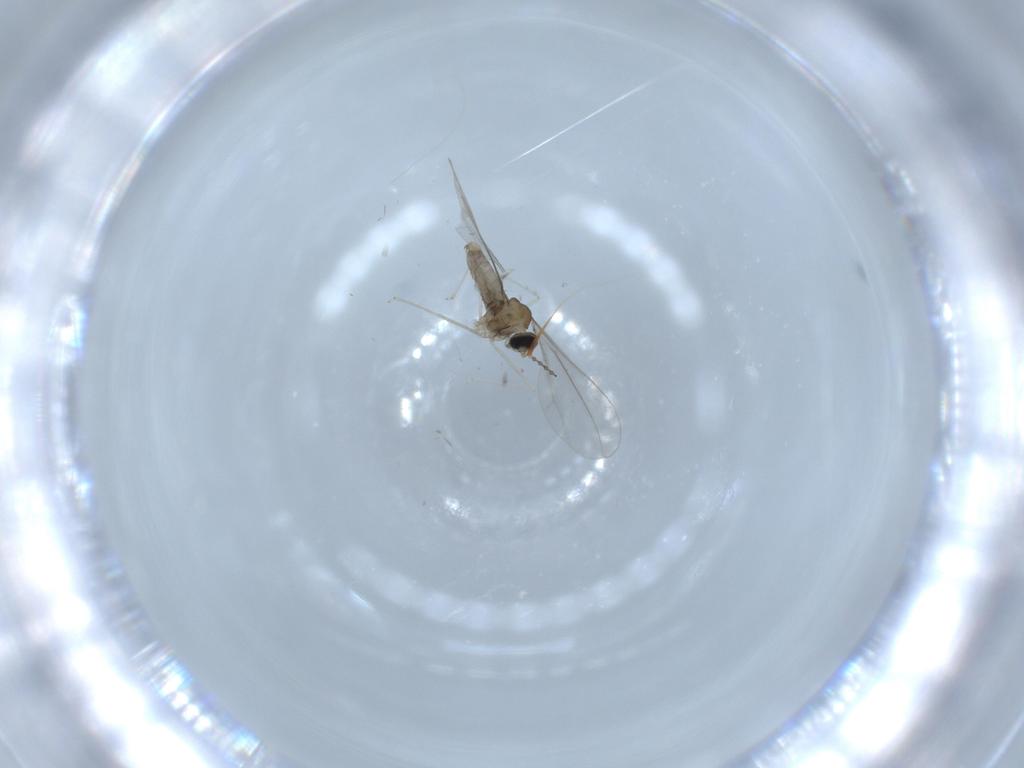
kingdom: Animalia
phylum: Arthropoda
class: Insecta
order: Diptera
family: Cecidomyiidae
